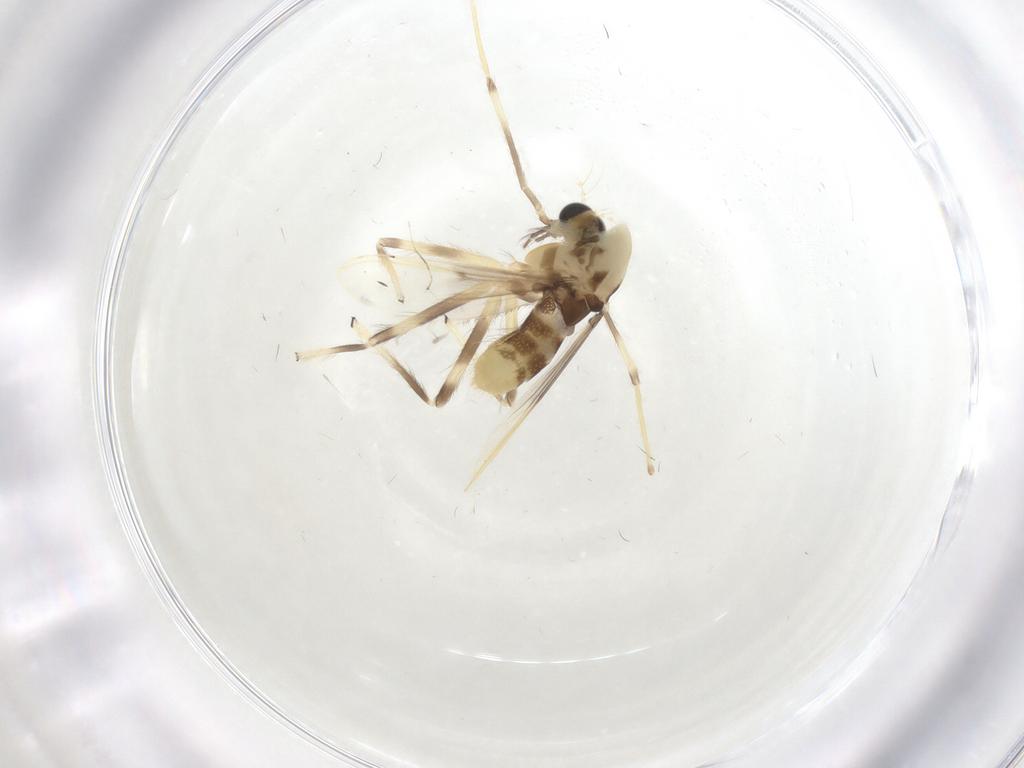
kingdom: Animalia
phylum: Arthropoda
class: Insecta
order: Diptera
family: Chironomidae
